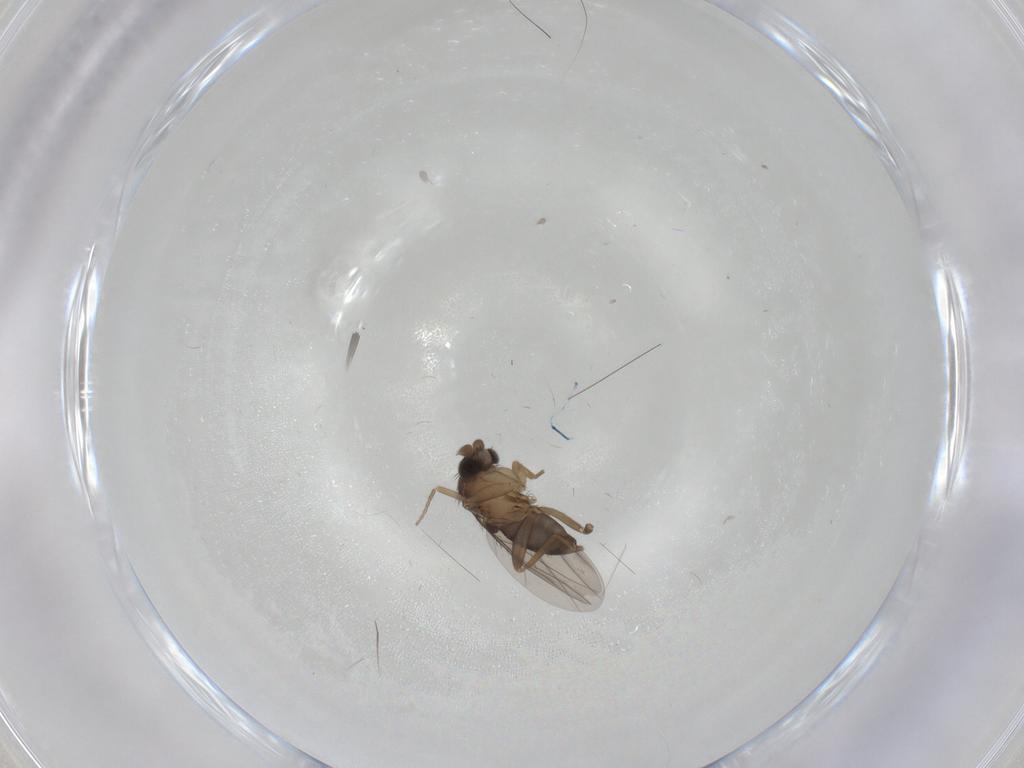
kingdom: Animalia
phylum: Arthropoda
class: Insecta
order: Diptera
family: Phoridae
